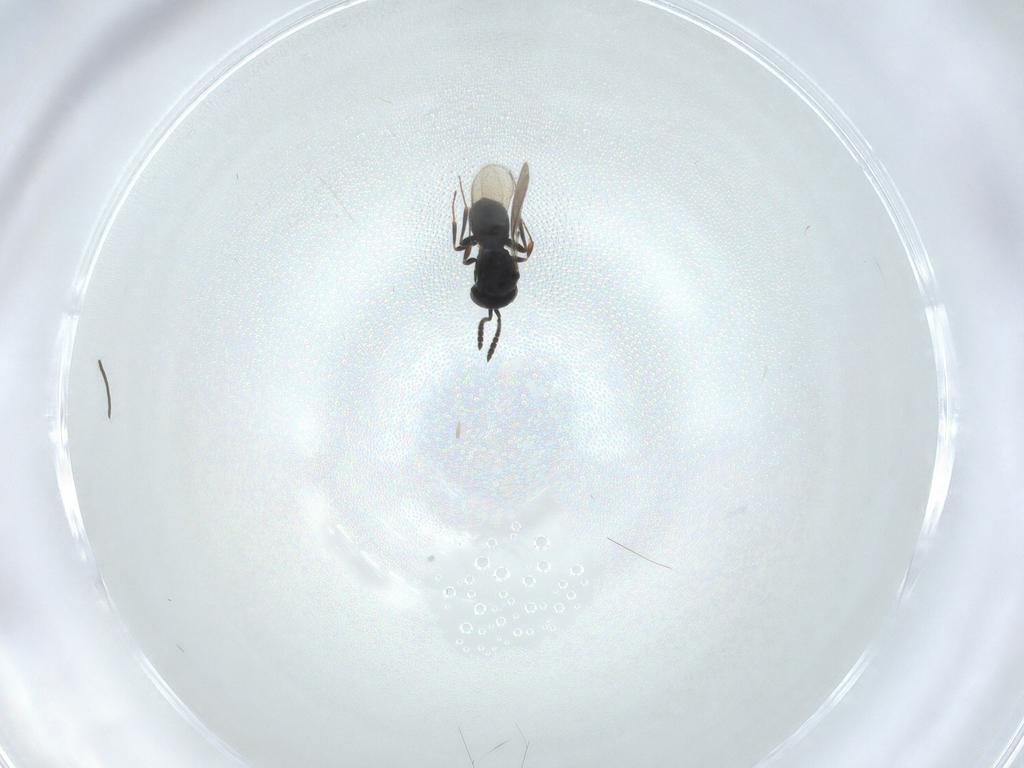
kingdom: Animalia
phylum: Arthropoda
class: Insecta
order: Hymenoptera
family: Scelionidae
